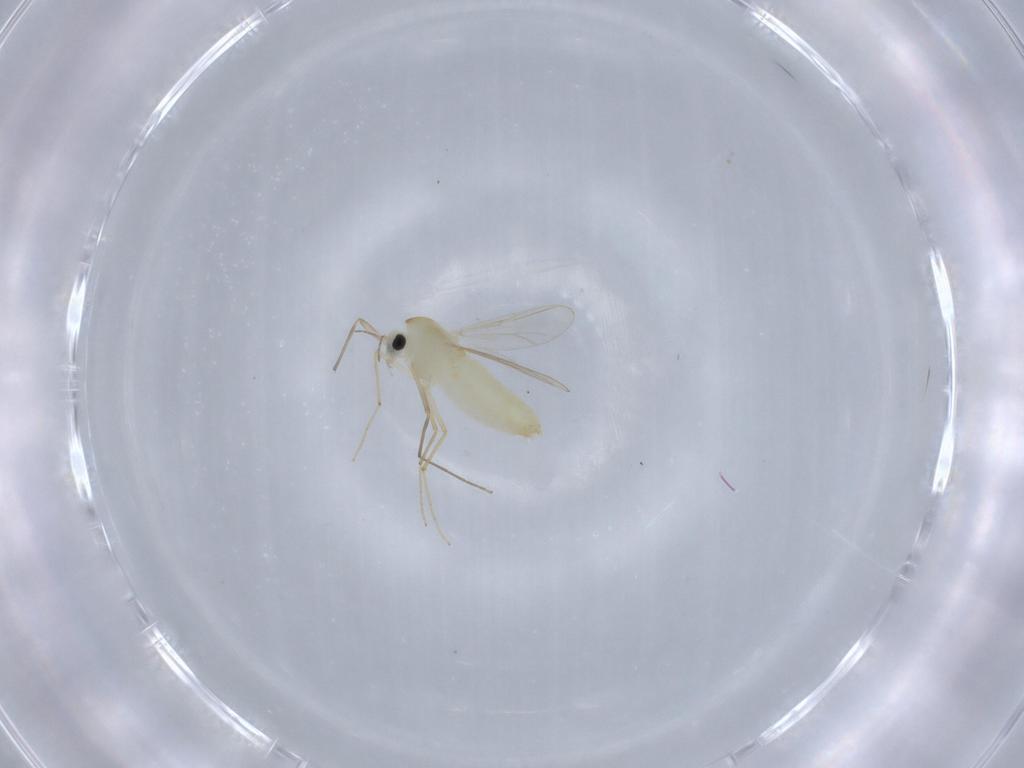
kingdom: Animalia
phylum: Arthropoda
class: Insecta
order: Diptera
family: Chironomidae
